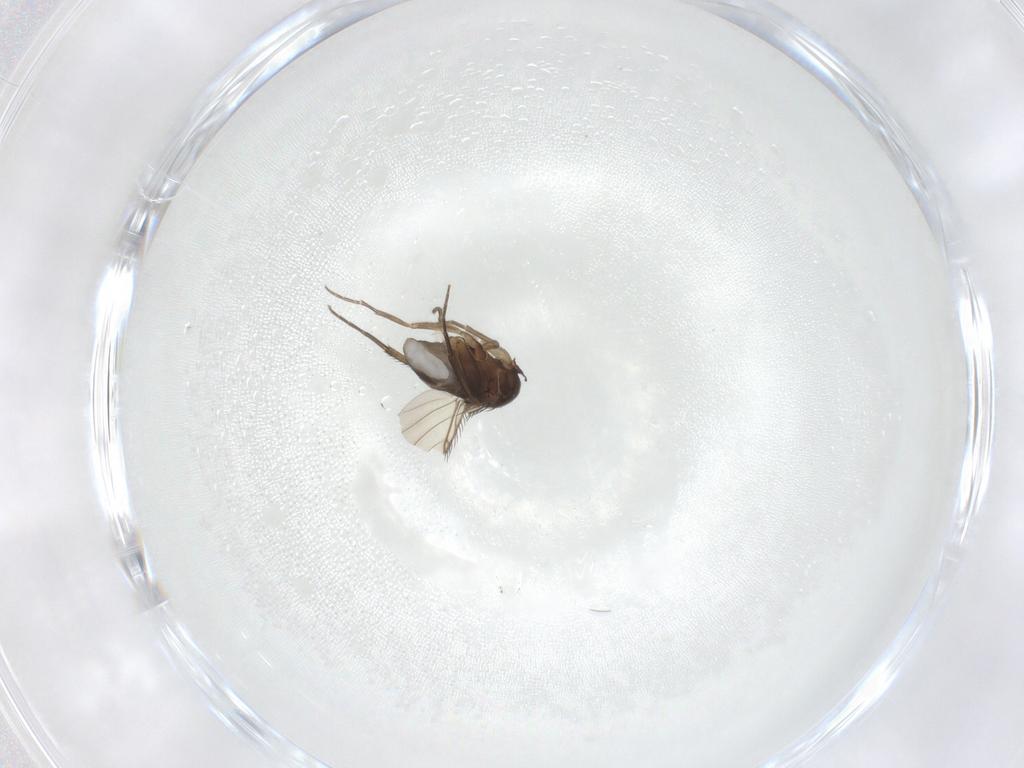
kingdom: Animalia
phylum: Arthropoda
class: Insecta
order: Diptera
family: Phoridae
